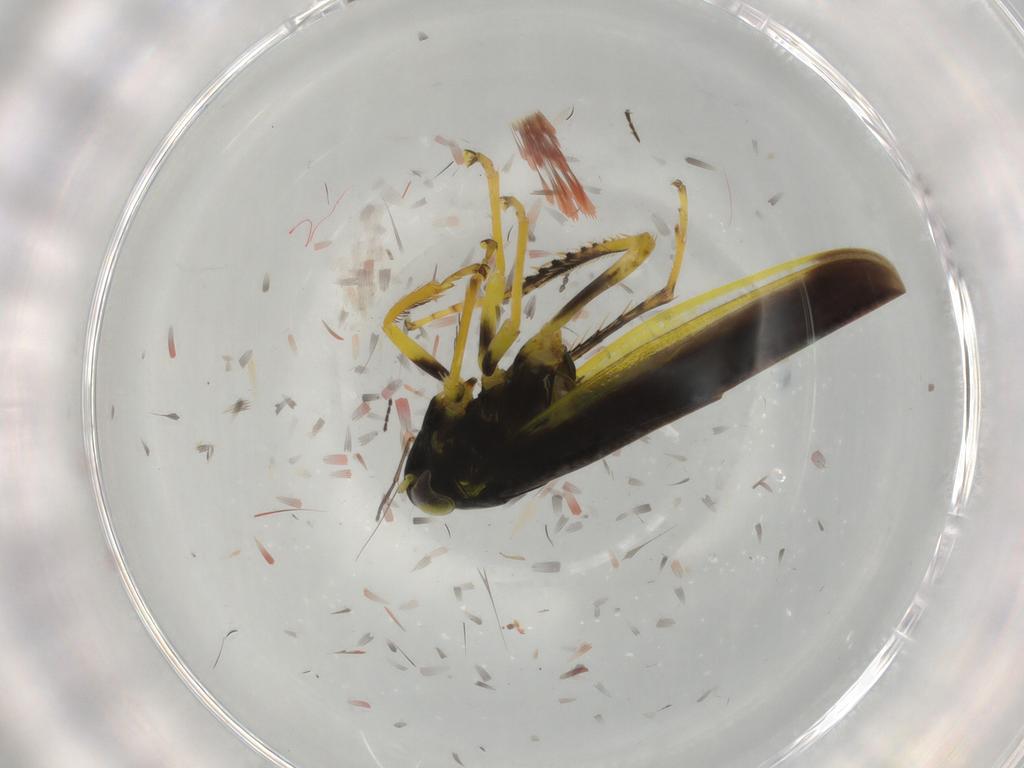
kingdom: Animalia
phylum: Arthropoda
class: Insecta
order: Hemiptera
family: Cicadellidae
